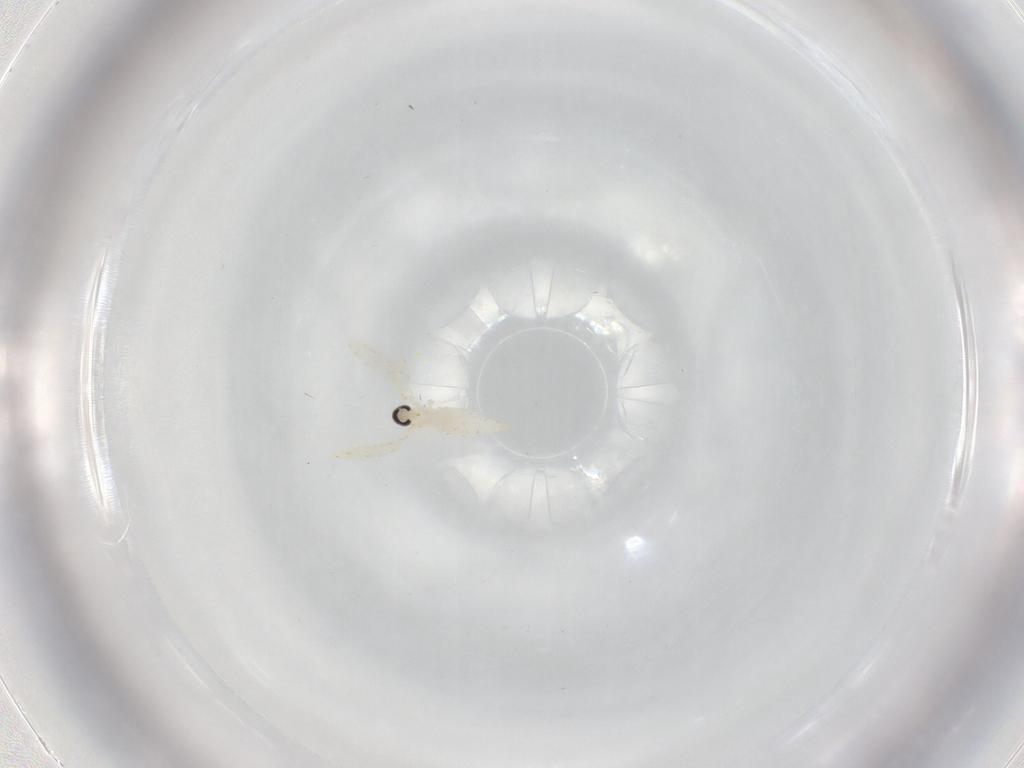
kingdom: Animalia
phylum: Arthropoda
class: Insecta
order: Diptera
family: Cecidomyiidae
